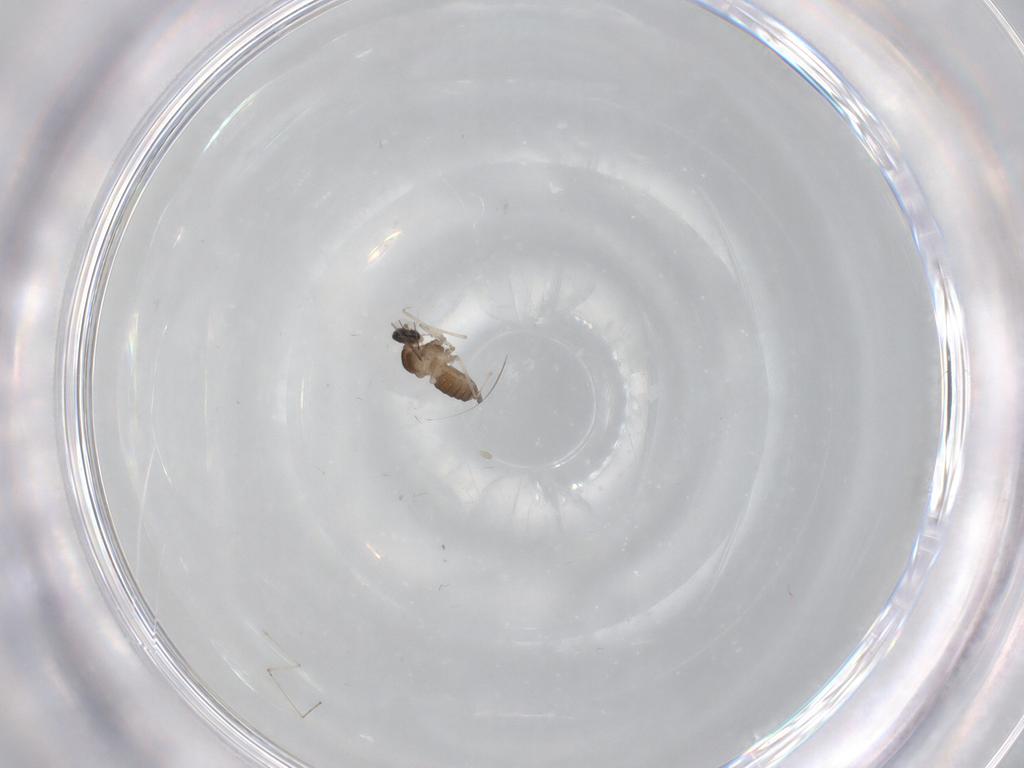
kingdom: Animalia
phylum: Arthropoda
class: Insecta
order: Diptera
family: Cecidomyiidae
